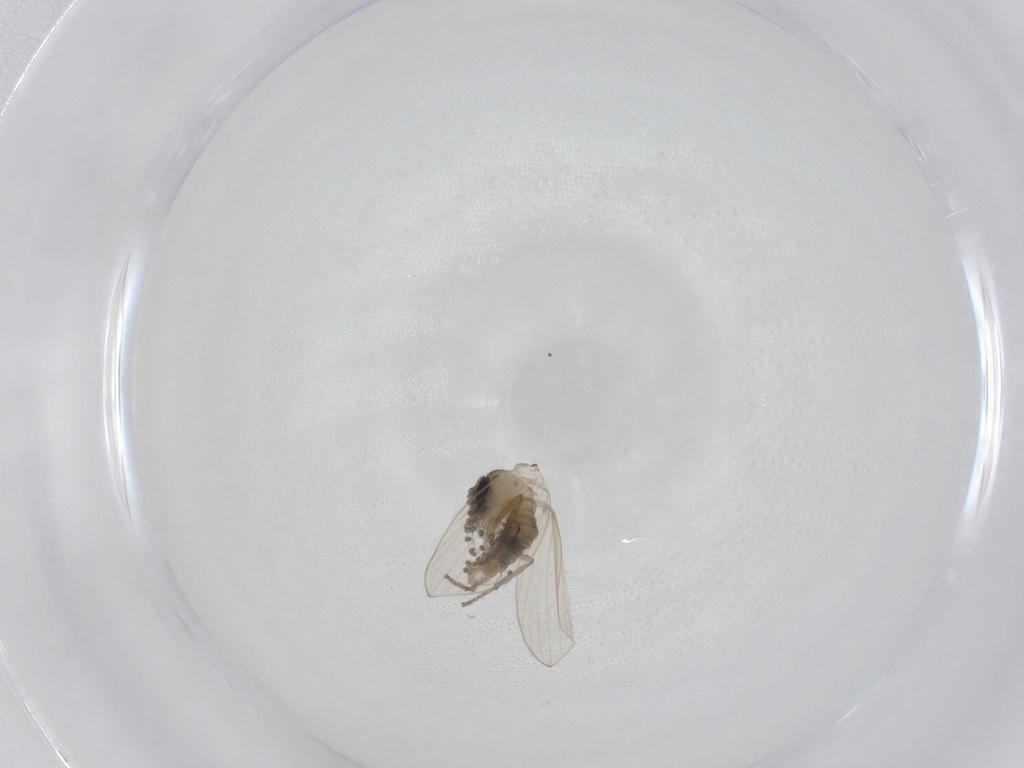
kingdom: Animalia
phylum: Arthropoda
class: Insecta
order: Diptera
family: Psychodidae
